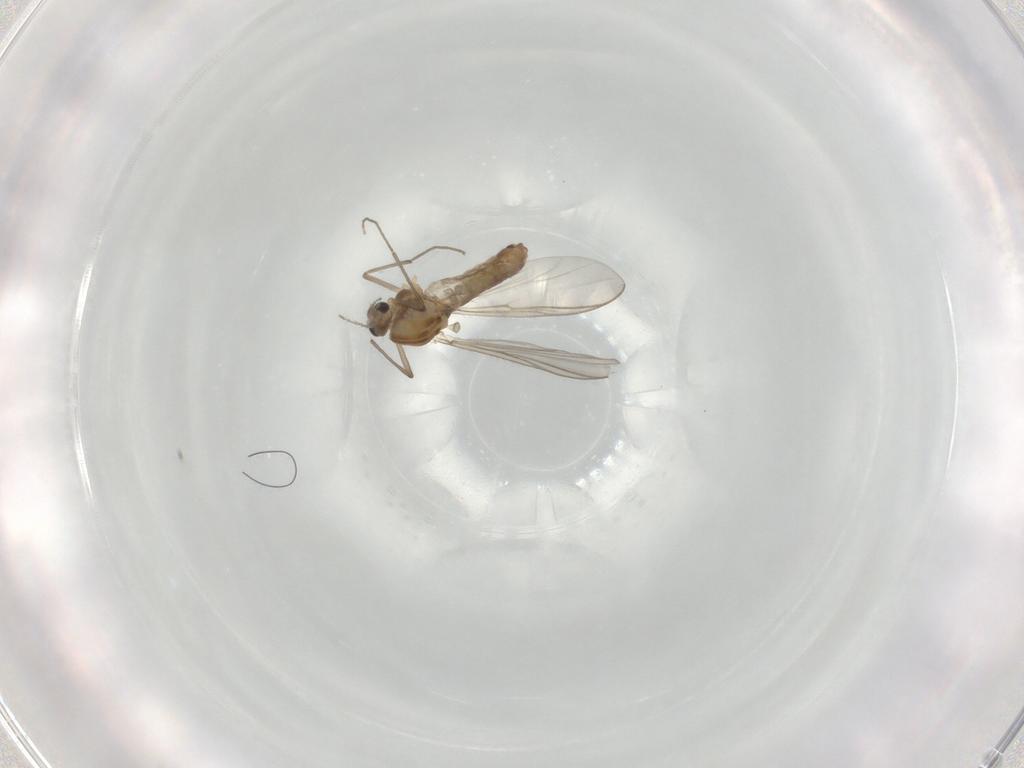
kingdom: Animalia
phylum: Arthropoda
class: Insecta
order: Diptera
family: Chironomidae
